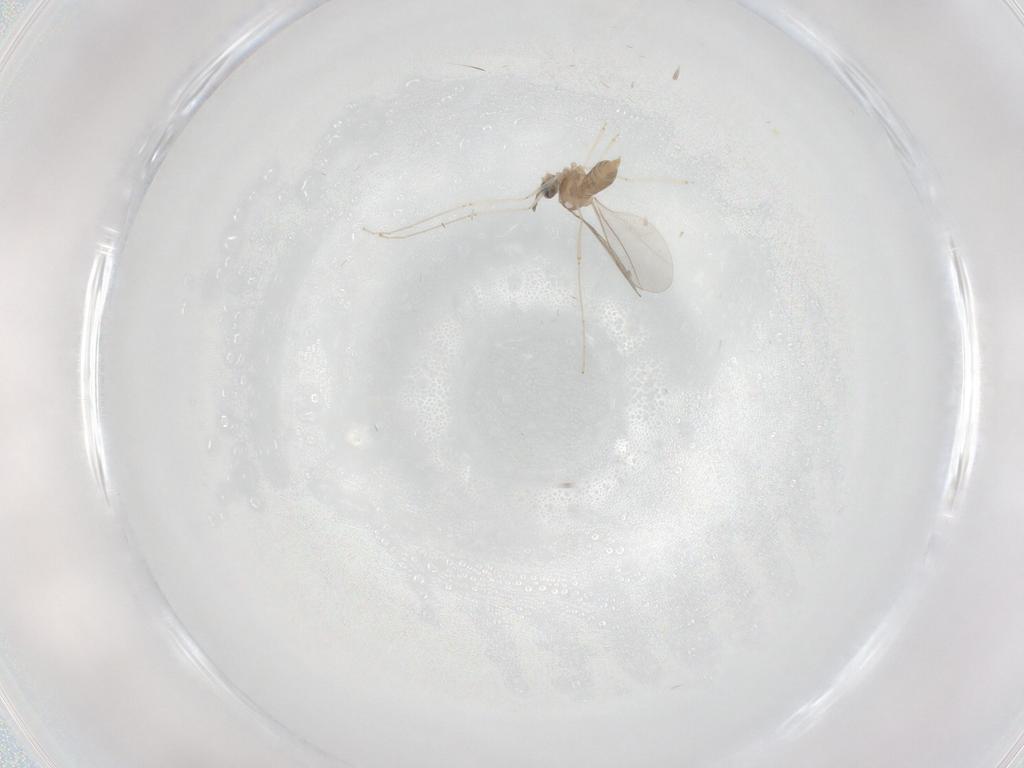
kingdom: Animalia
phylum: Arthropoda
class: Insecta
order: Diptera
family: Cecidomyiidae
